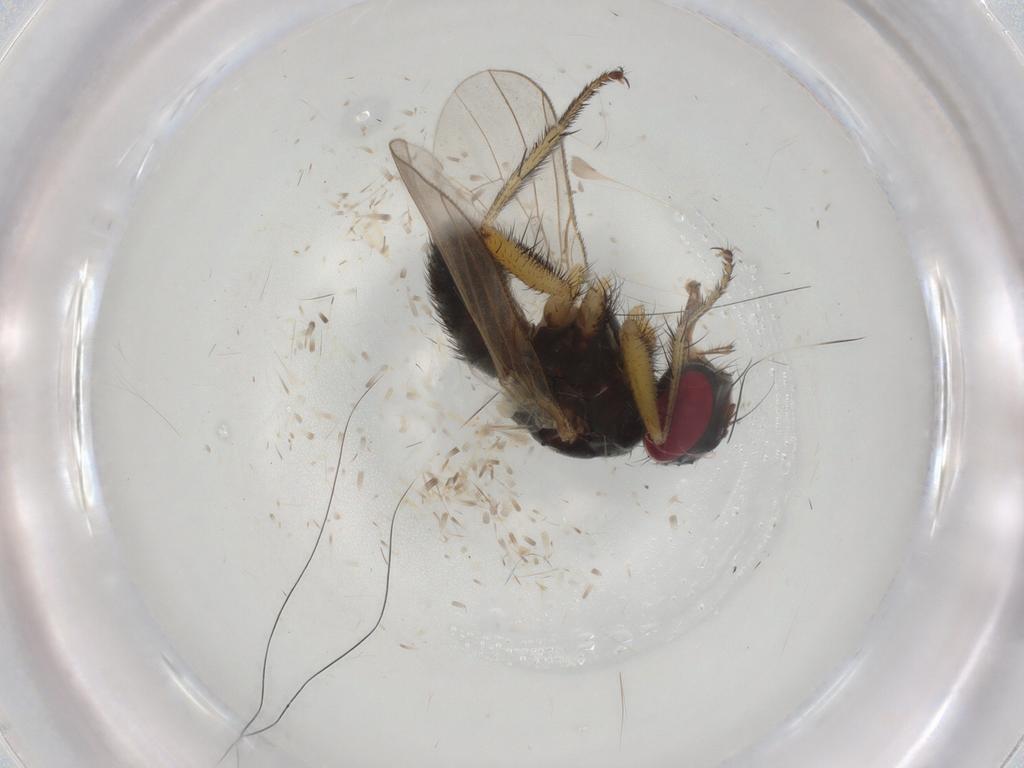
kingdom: Animalia
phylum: Arthropoda
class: Insecta
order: Diptera
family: Muscidae
